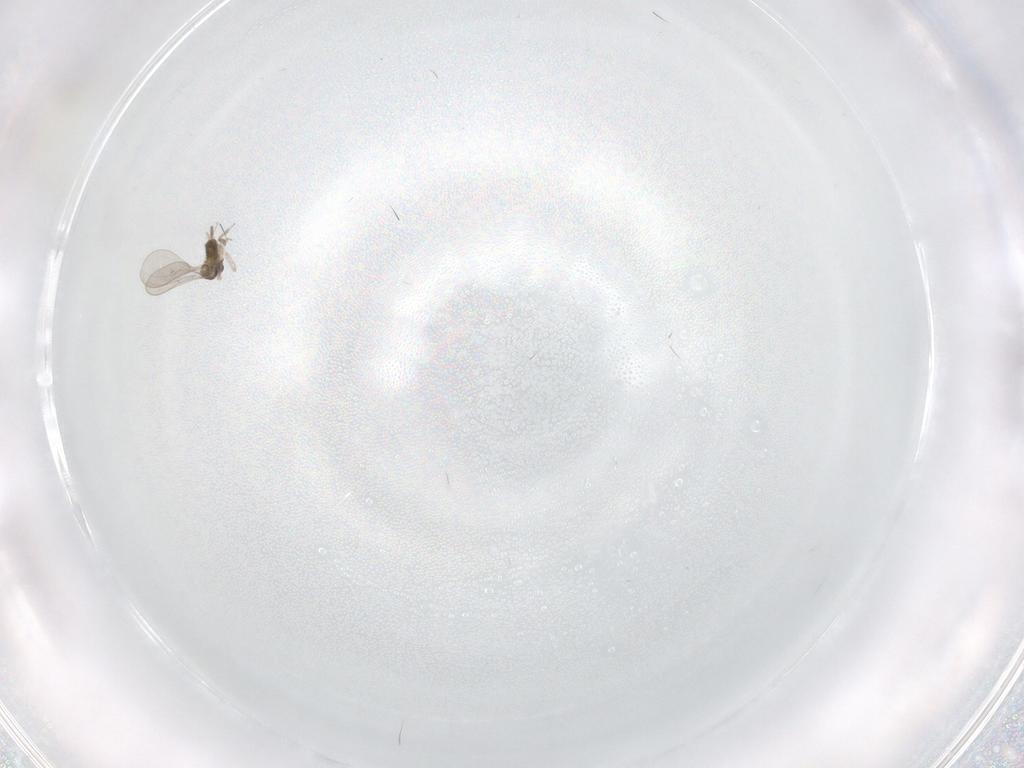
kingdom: Animalia
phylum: Arthropoda
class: Insecta
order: Diptera
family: Cecidomyiidae
